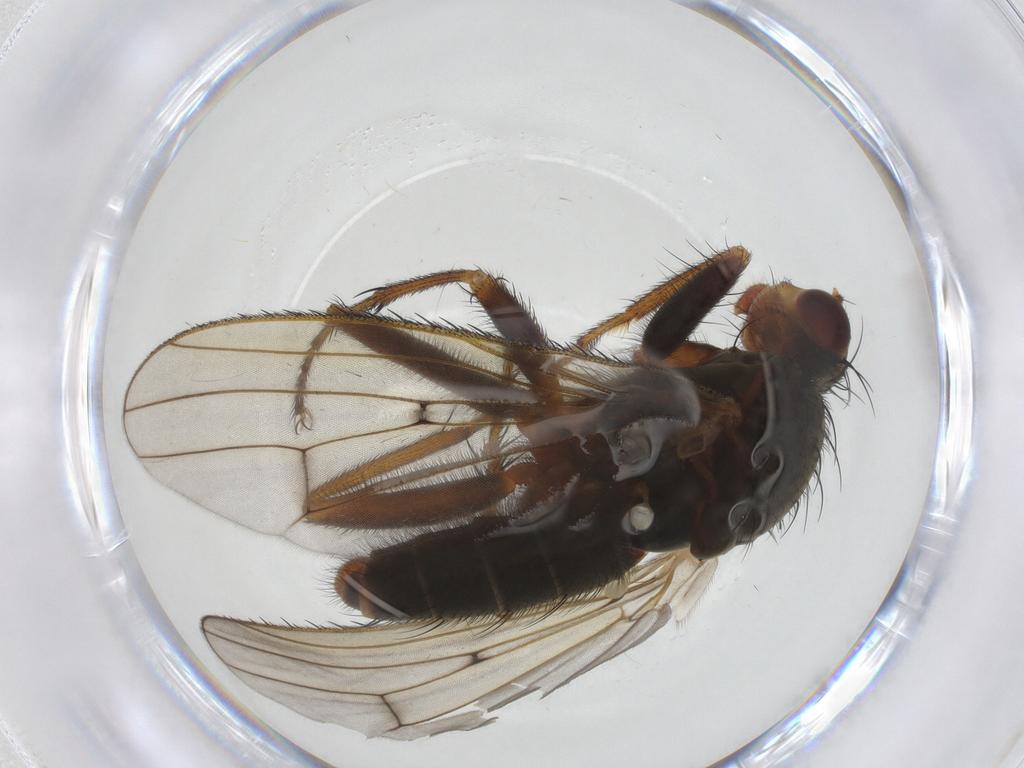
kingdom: Animalia
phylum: Arthropoda
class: Insecta
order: Diptera
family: Heleomyzidae
